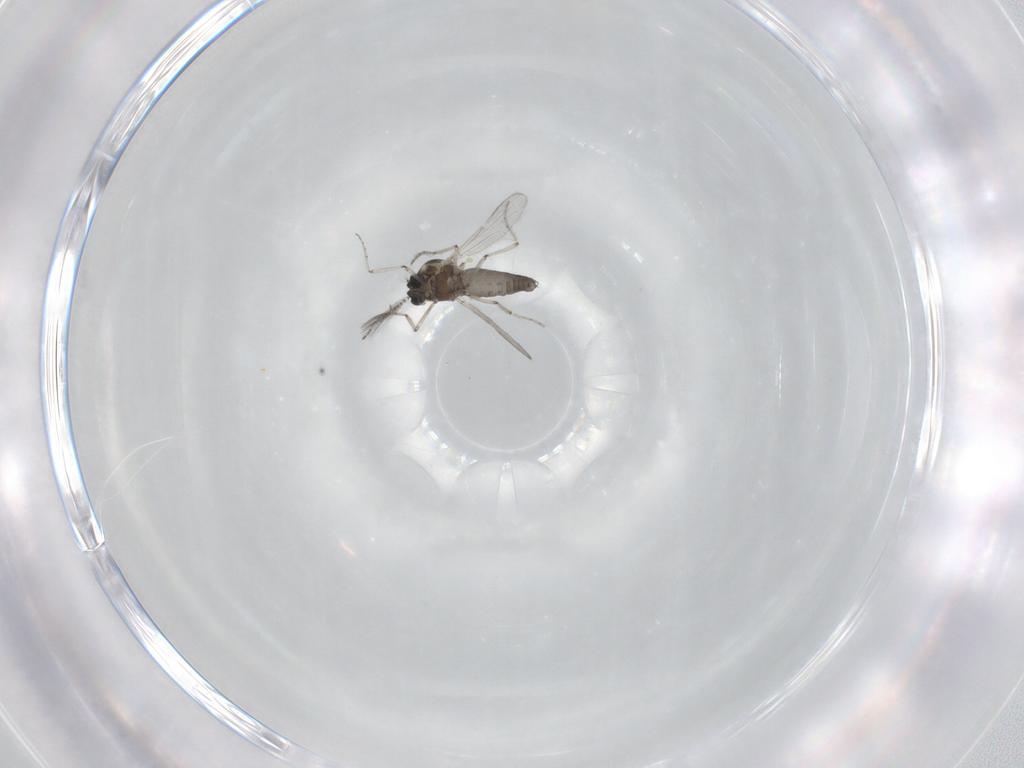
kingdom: Animalia
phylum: Arthropoda
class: Insecta
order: Diptera
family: Ceratopogonidae
